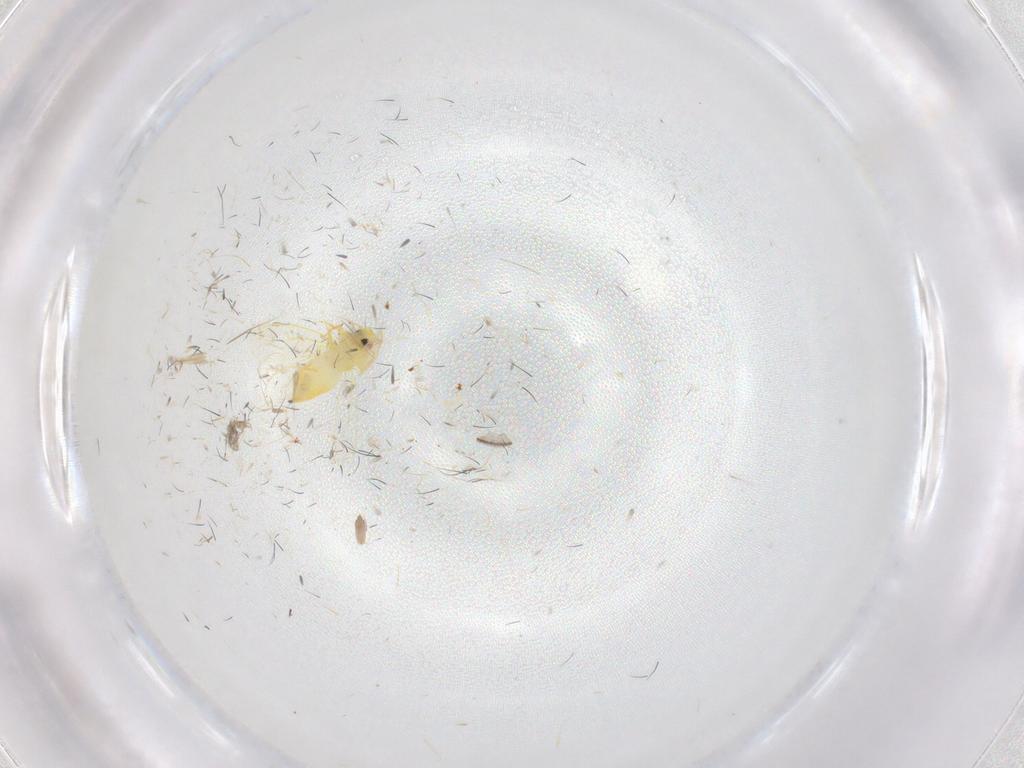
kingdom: Animalia
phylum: Arthropoda
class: Insecta
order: Hemiptera
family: Aleyrodidae
